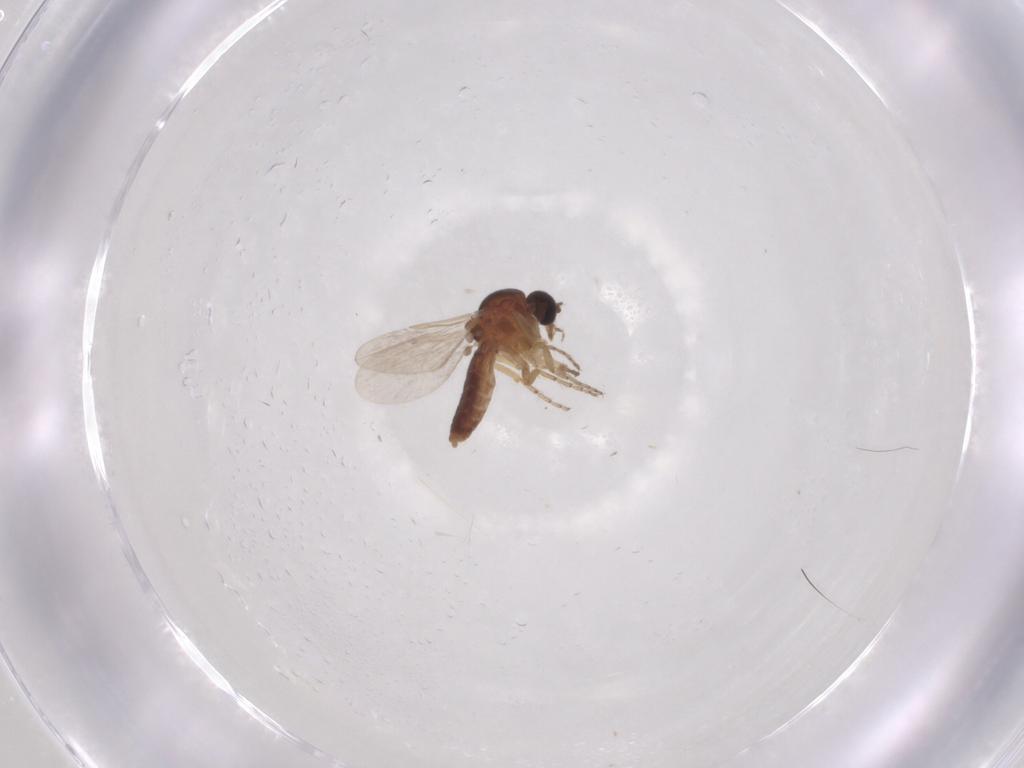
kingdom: Animalia
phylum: Arthropoda
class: Insecta
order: Diptera
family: Ceratopogonidae
